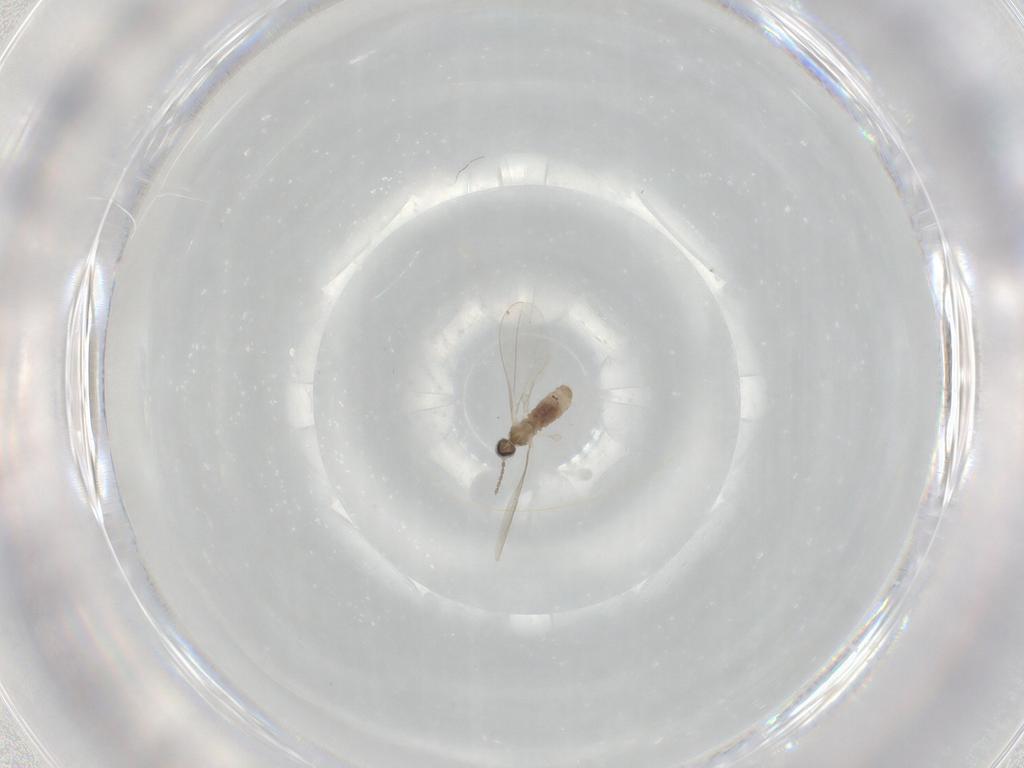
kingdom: Animalia
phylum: Arthropoda
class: Insecta
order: Diptera
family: Cecidomyiidae
